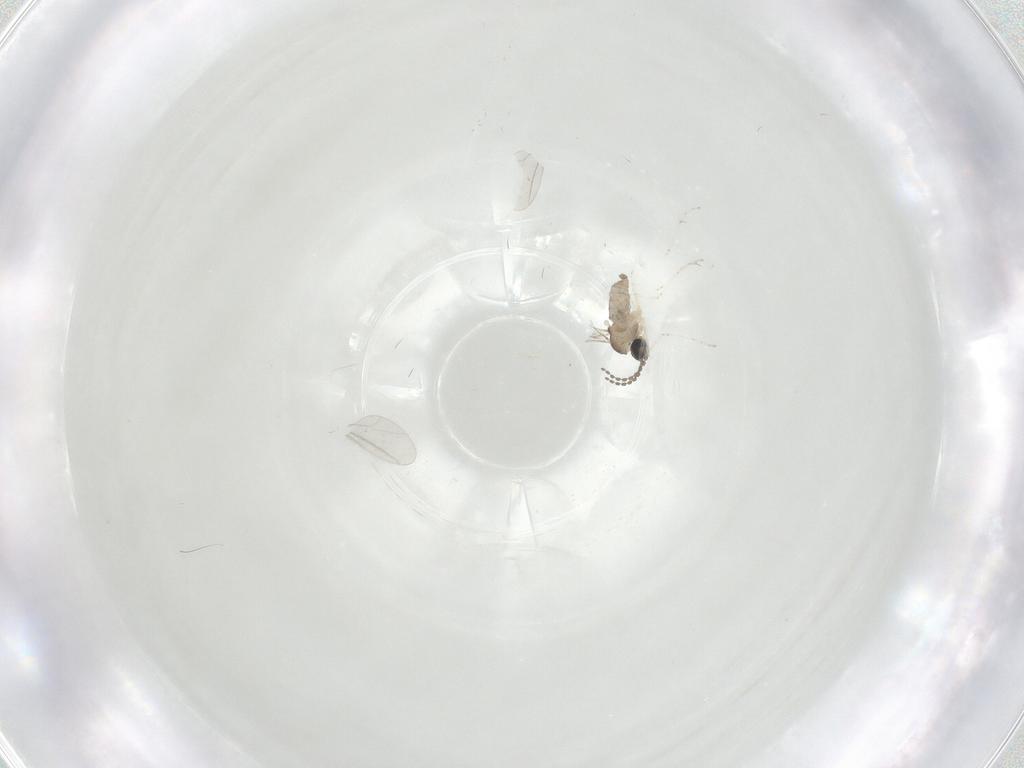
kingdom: Animalia
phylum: Arthropoda
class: Insecta
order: Diptera
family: Cecidomyiidae
